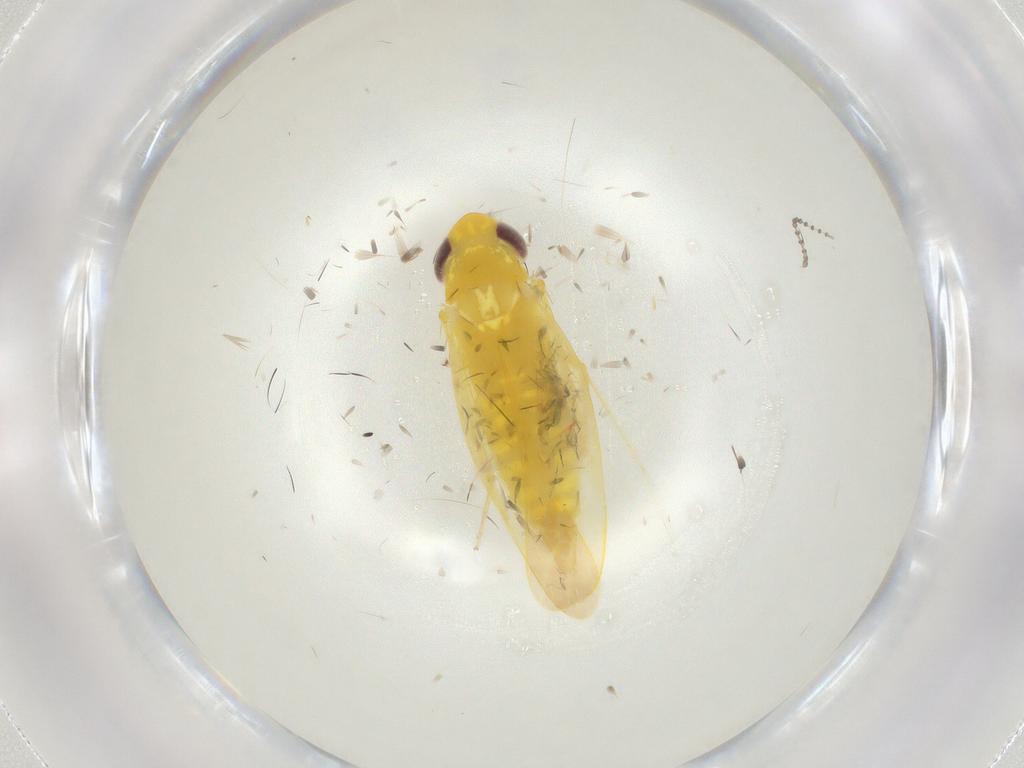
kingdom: Animalia
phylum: Arthropoda
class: Insecta
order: Hemiptera
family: Cicadellidae
